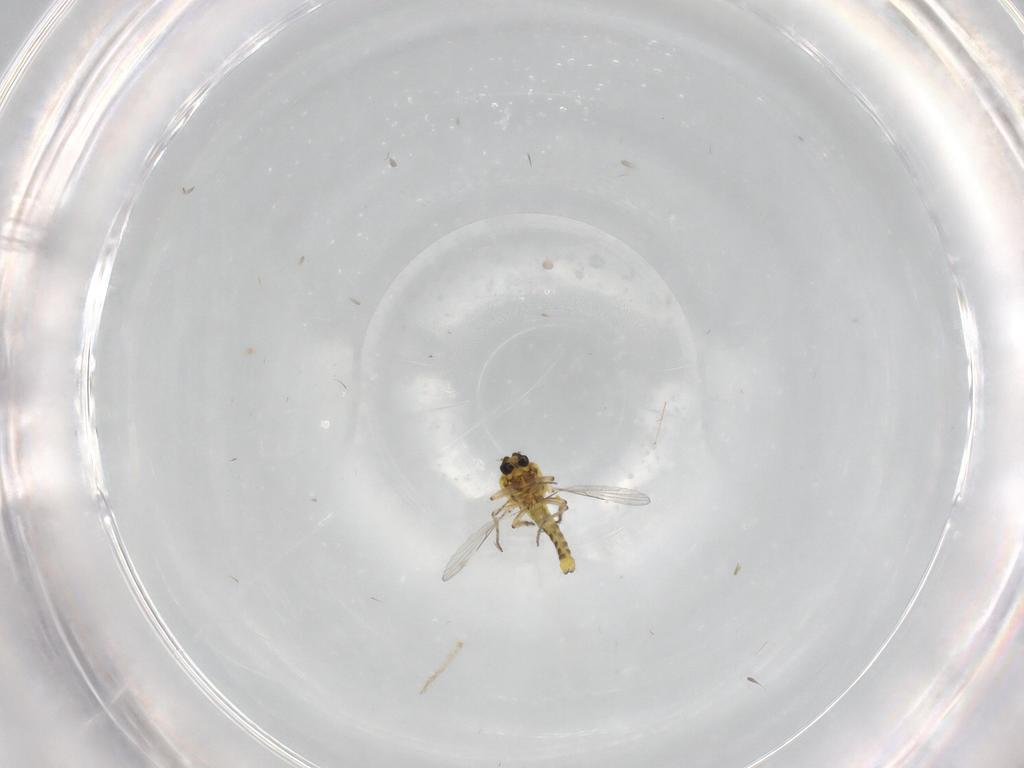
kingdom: Animalia
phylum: Arthropoda
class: Insecta
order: Diptera
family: Ceratopogonidae
